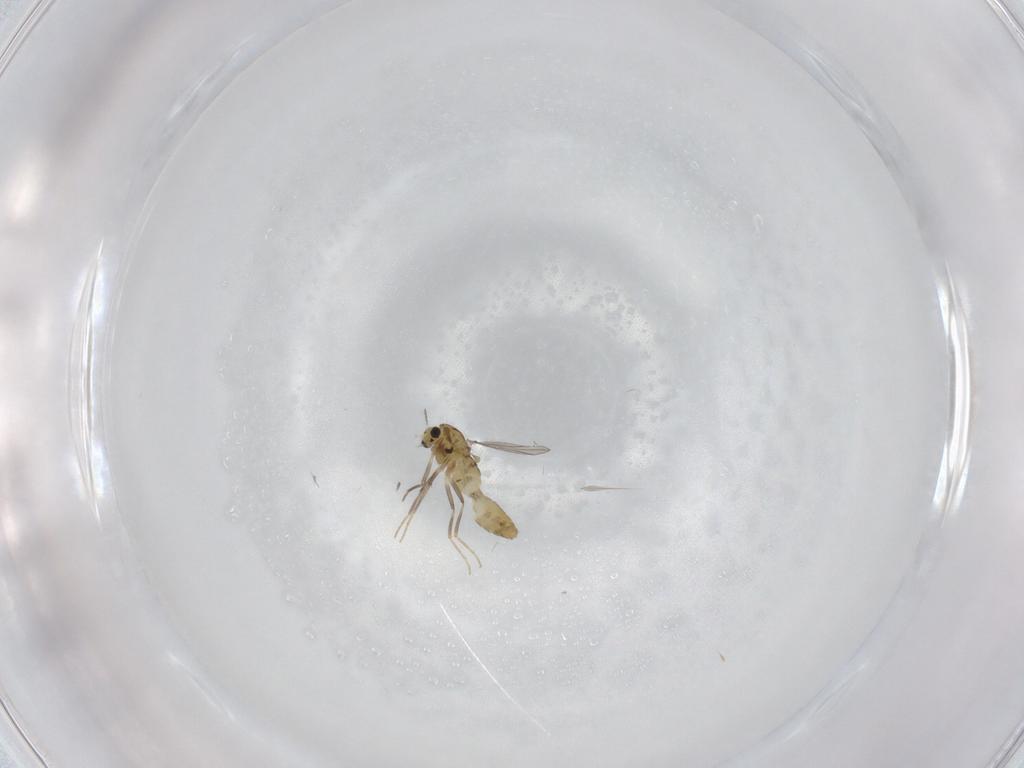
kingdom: Animalia
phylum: Arthropoda
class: Insecta
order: Diptera
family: Chironomidae
